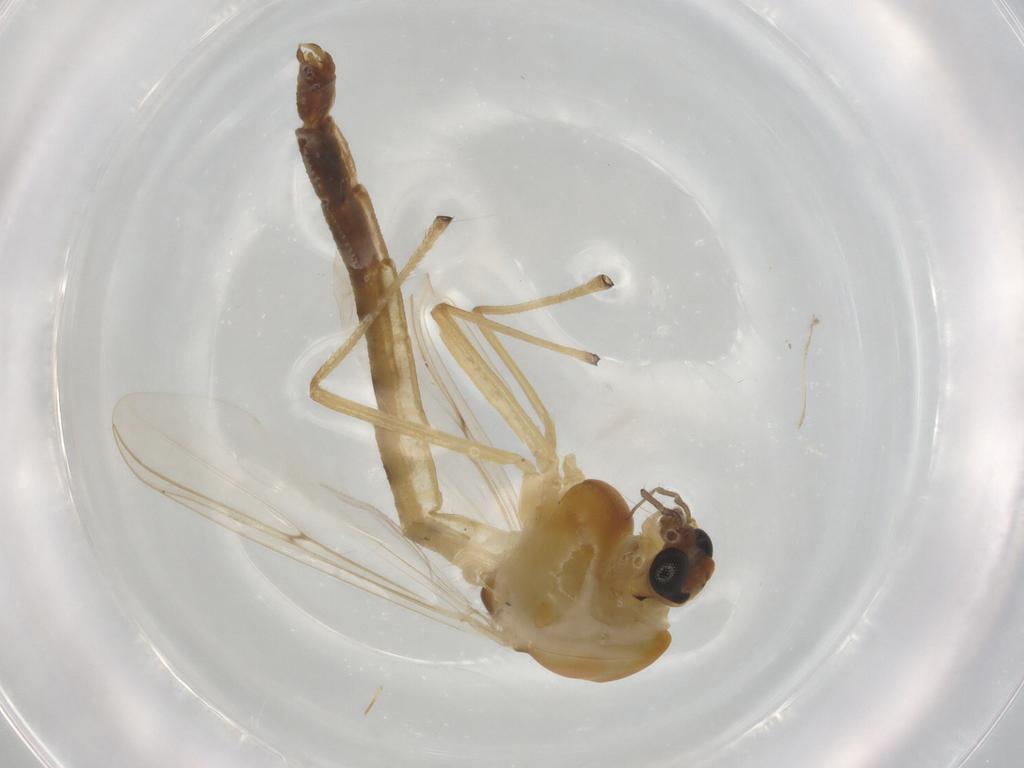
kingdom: Animalia
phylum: Arthropoda
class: Insecta
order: Diptera
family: Chironomidae
